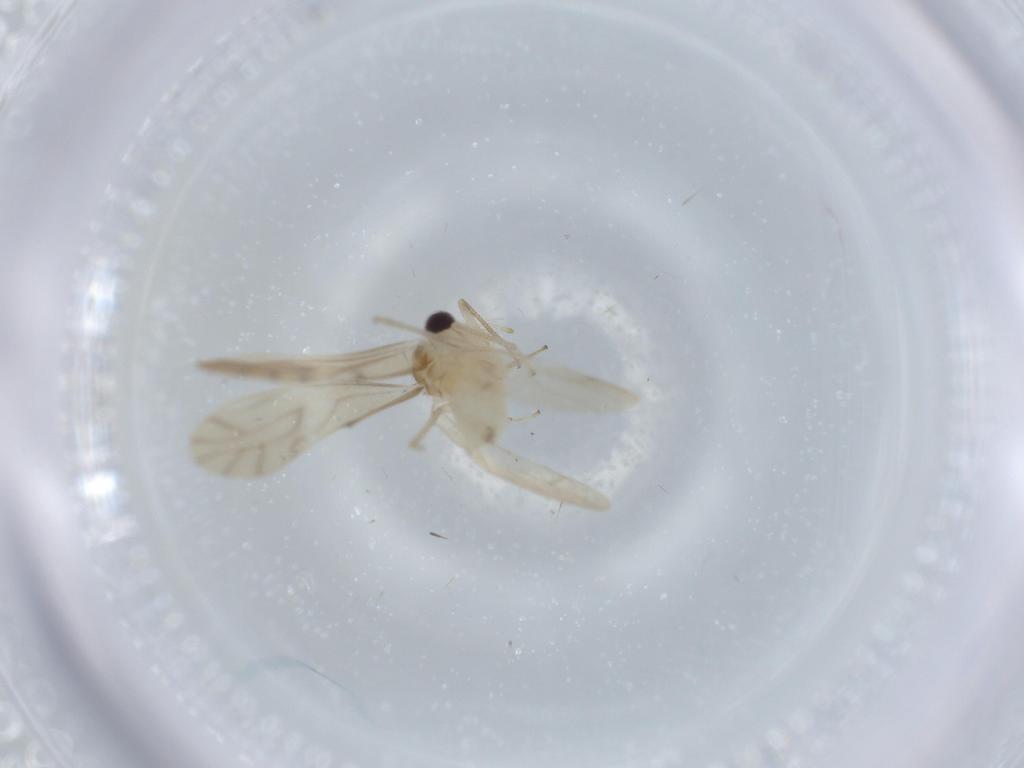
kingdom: Animalia
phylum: Arthropoda
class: Insecta
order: Psocodea
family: Caeciliusidae
